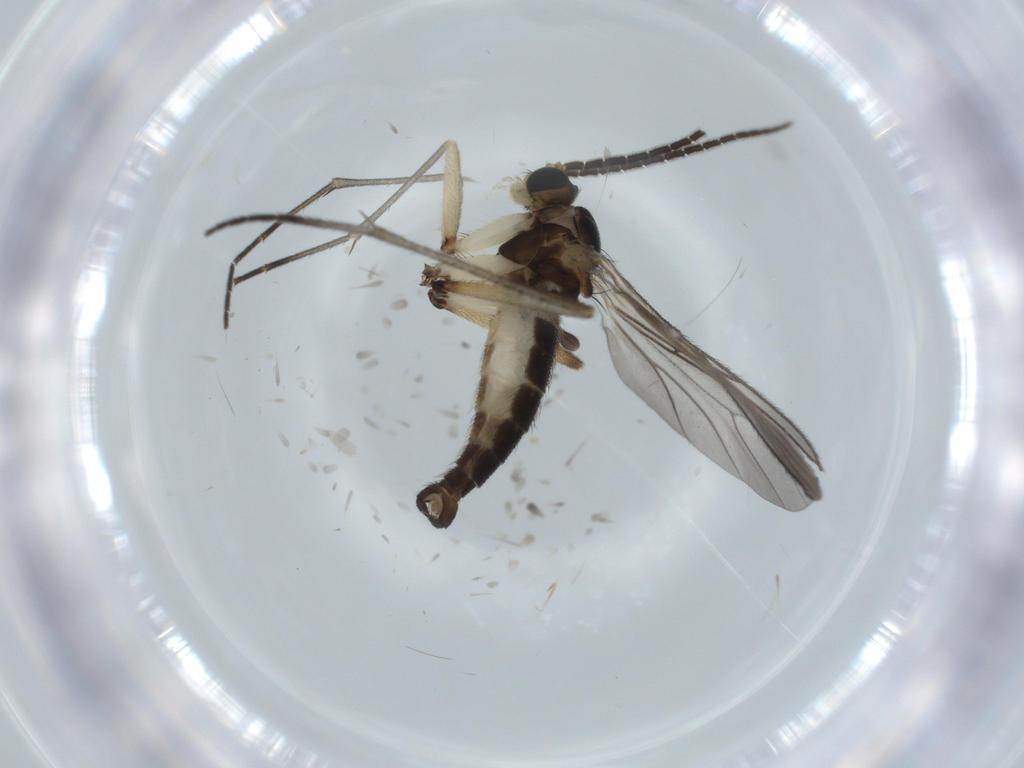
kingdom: Animalia
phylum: Arthropoda
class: Insecta
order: Diptera
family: Sciaridae
